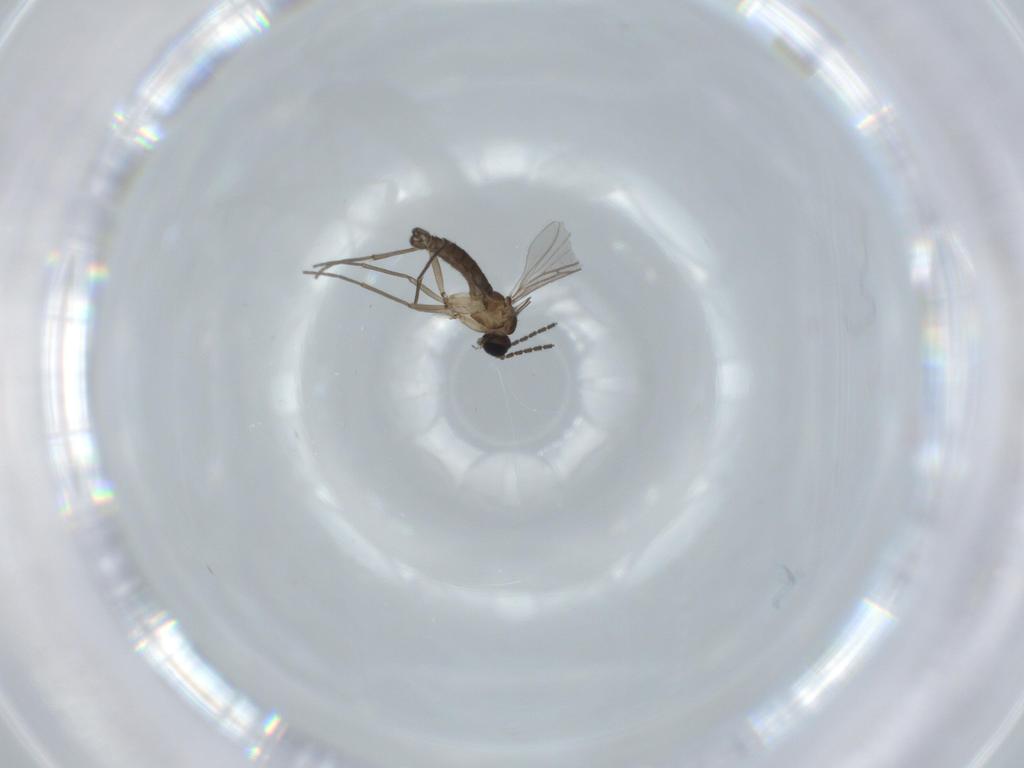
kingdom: Animalia
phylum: Arthropoda
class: Insecta
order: Diptera
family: Sciaridae
